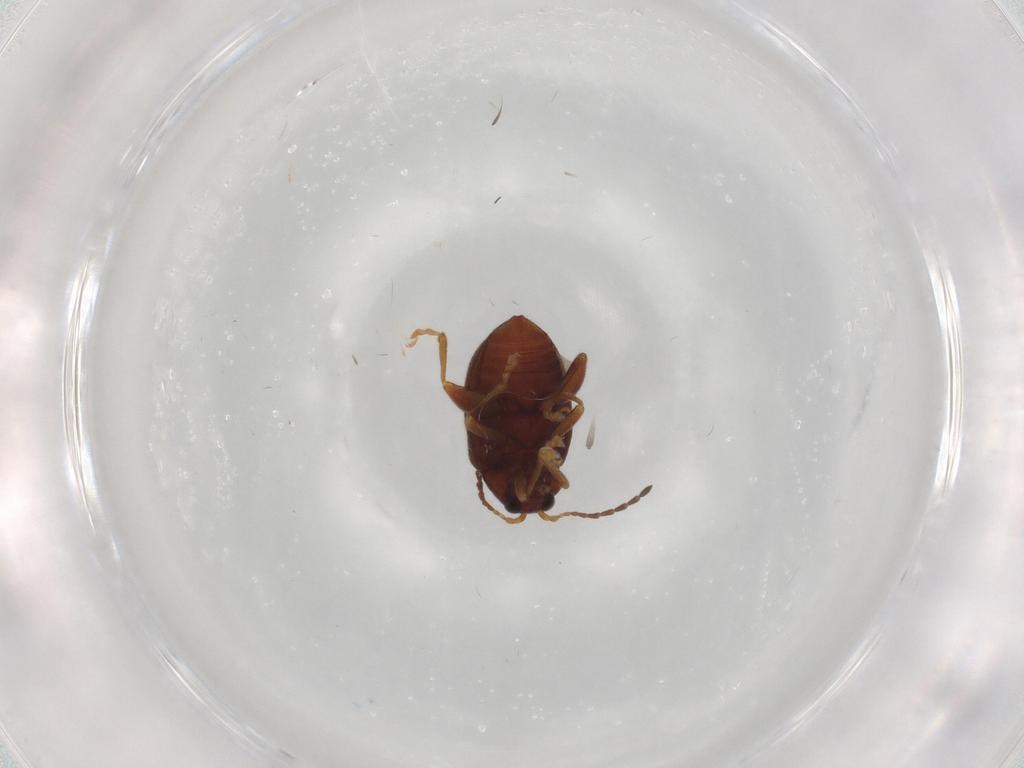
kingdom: Animalia
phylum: Arthropoda
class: Insecta
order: Coleoptera
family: Chrysomelidae
